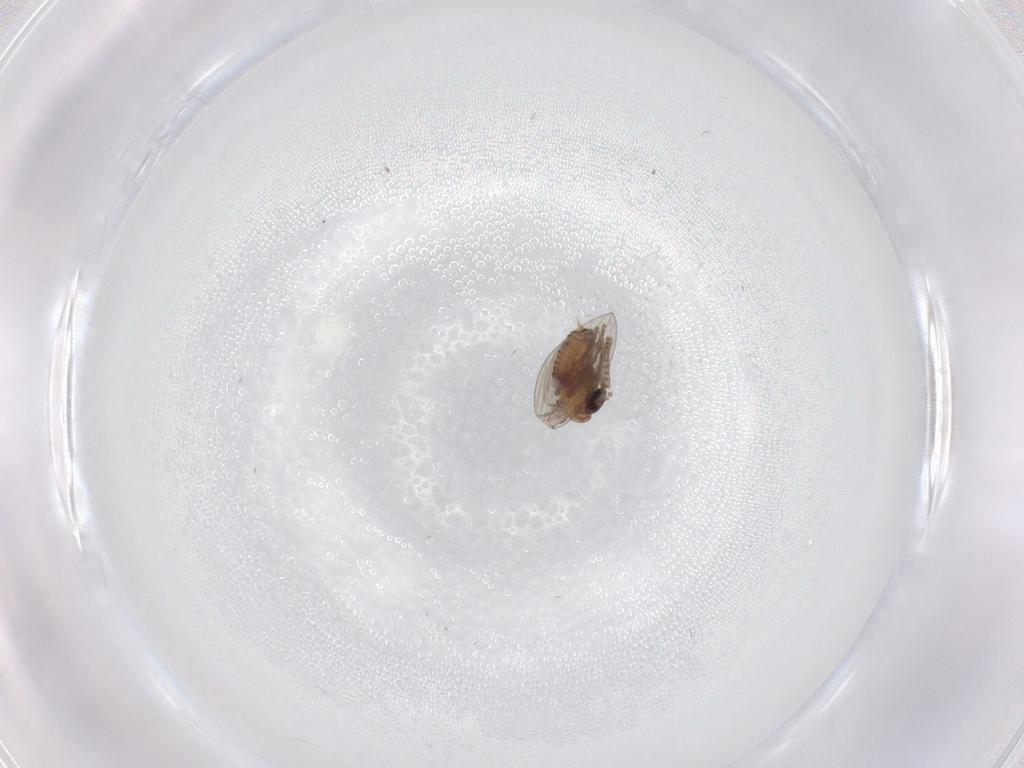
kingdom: Animalia
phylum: Arthropoda
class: Insecta
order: Diptera
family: Psychodidae
